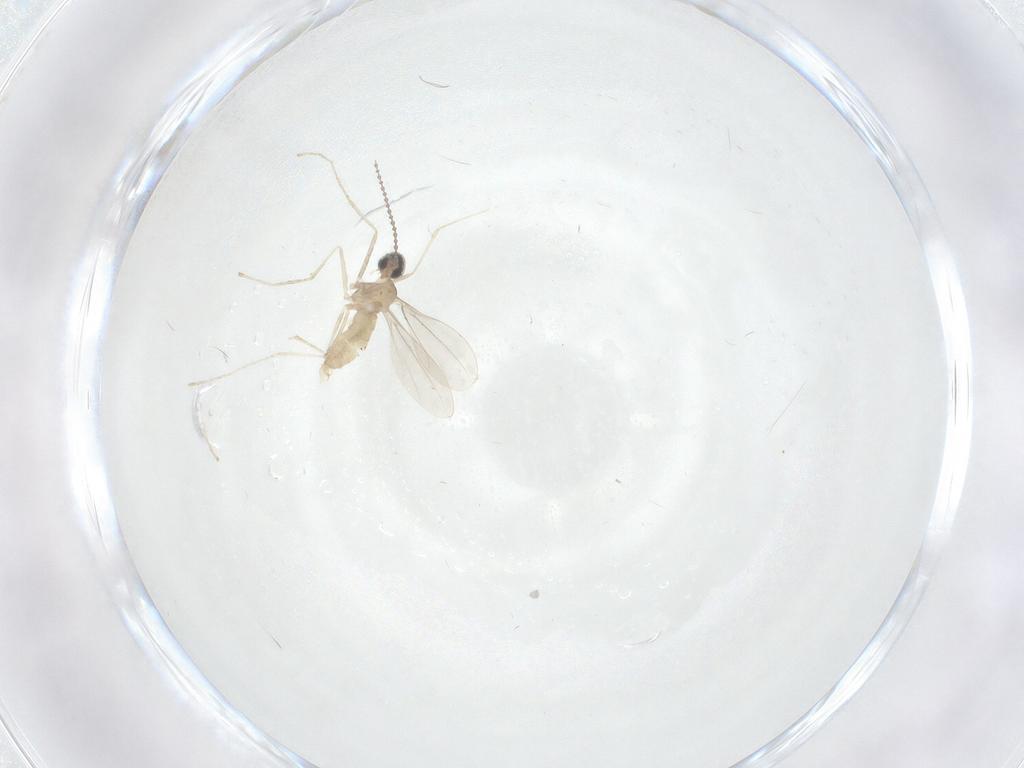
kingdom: Animalia
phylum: Arthropoda
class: Insecta
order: Diptera
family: Cecidomyiidae
